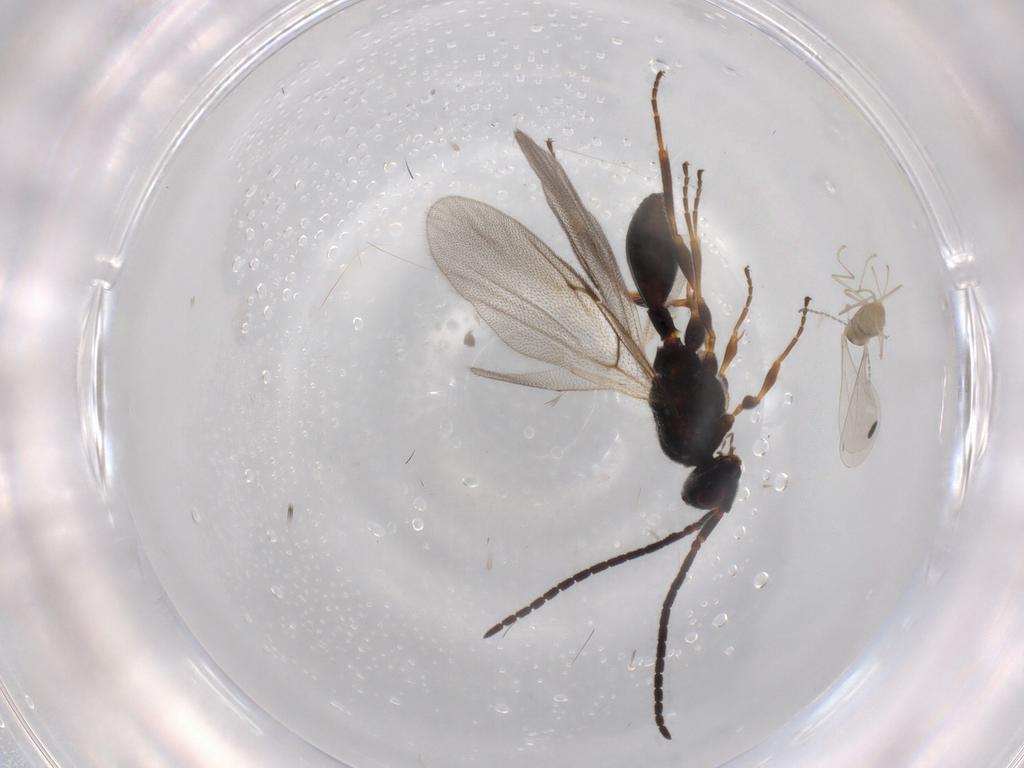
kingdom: Animalia
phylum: Arthropoda
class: Insecta
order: Diptera
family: Cecidomyiidae
